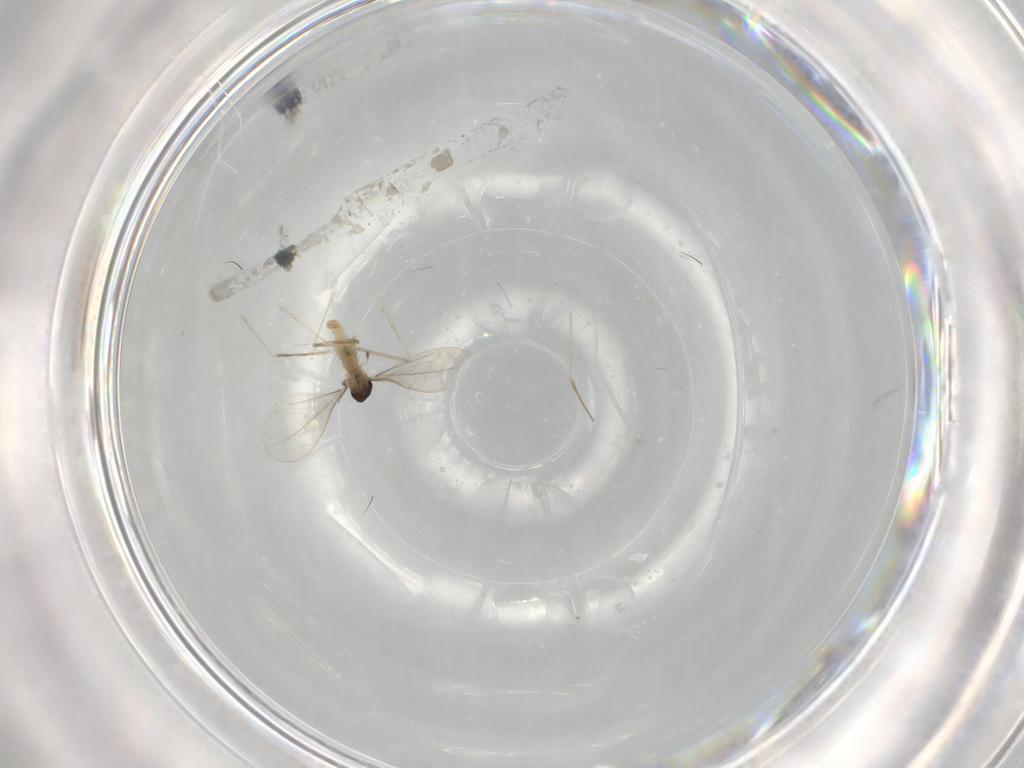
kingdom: Animalia
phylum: Arthropoda
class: Insecta
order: Diptera
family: Cecidomyiidae
